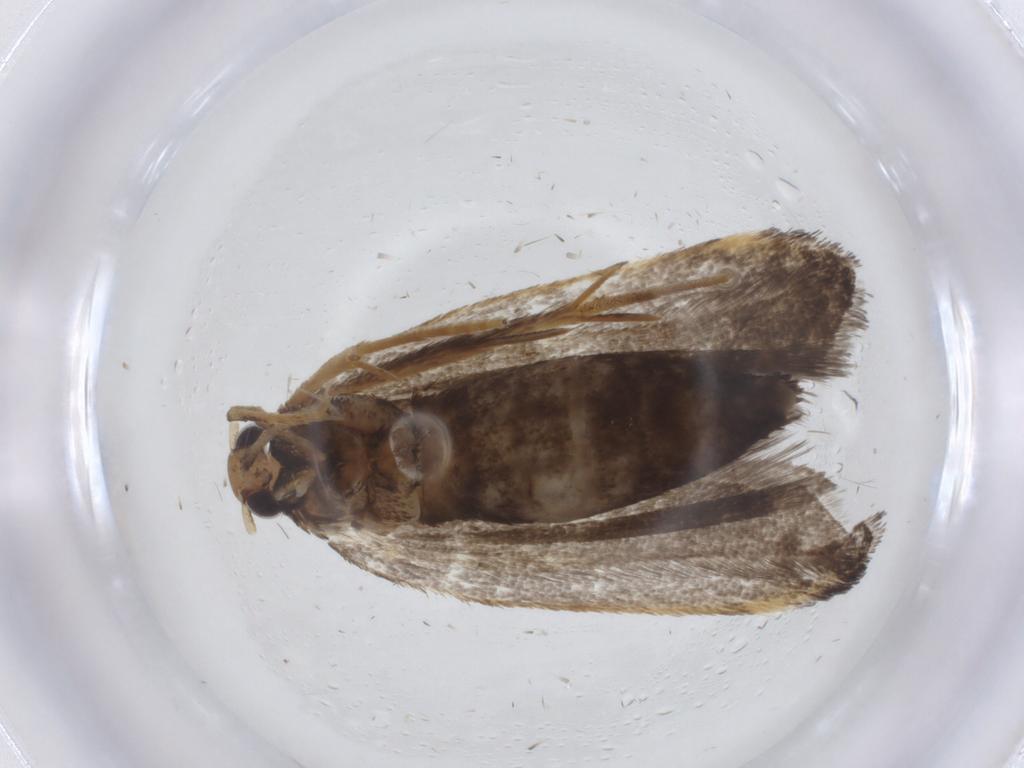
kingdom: Animalia
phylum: Arthropoda
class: Insecta
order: Lepidoptera
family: Lecithoceridae
